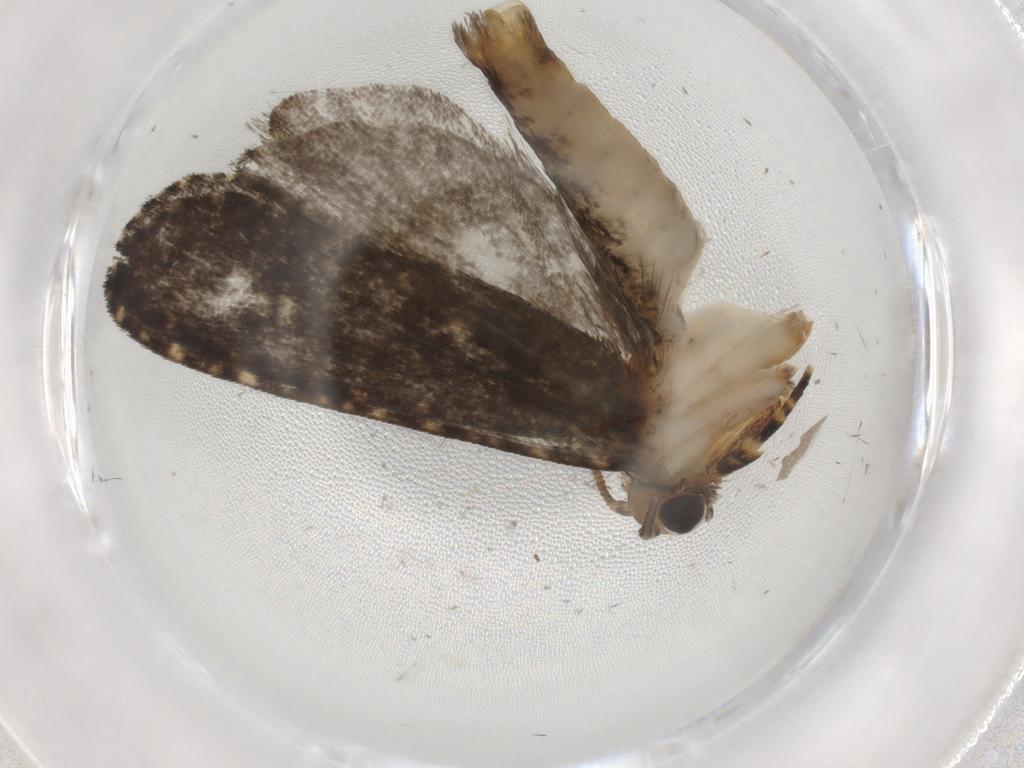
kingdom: Animalia
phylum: Arthropoda
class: Insecta
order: Lepidoptera
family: Tineidae
